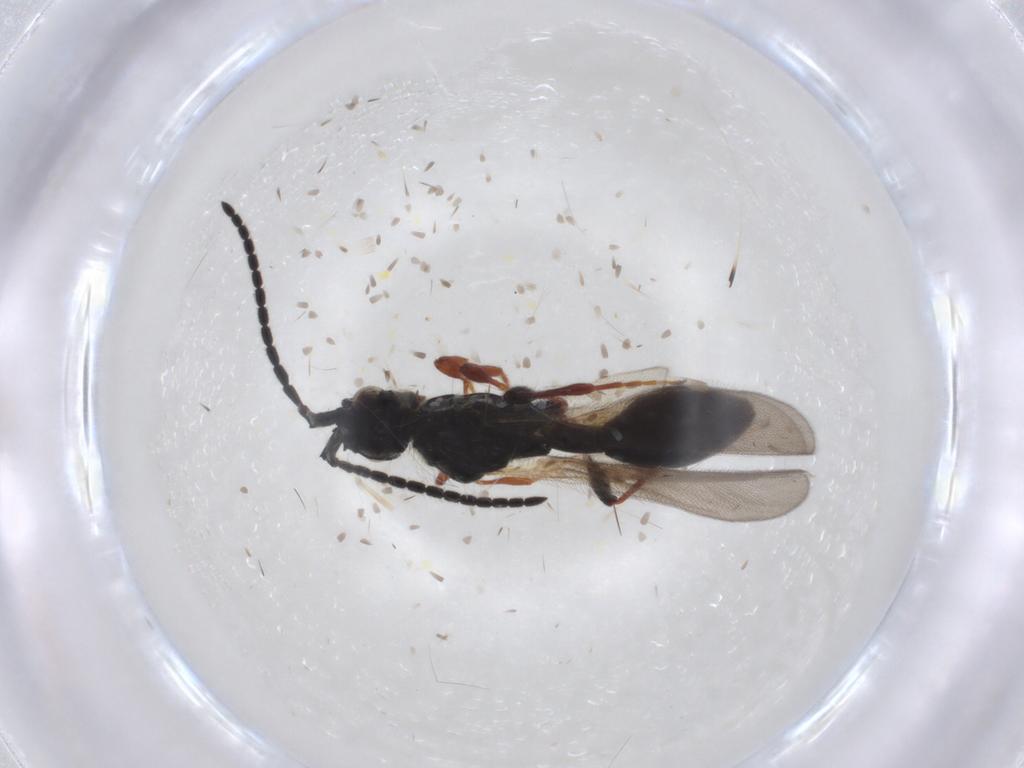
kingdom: Animalia
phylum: Arthropoda
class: Insecta
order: Hymenoptera
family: Diapriidae
